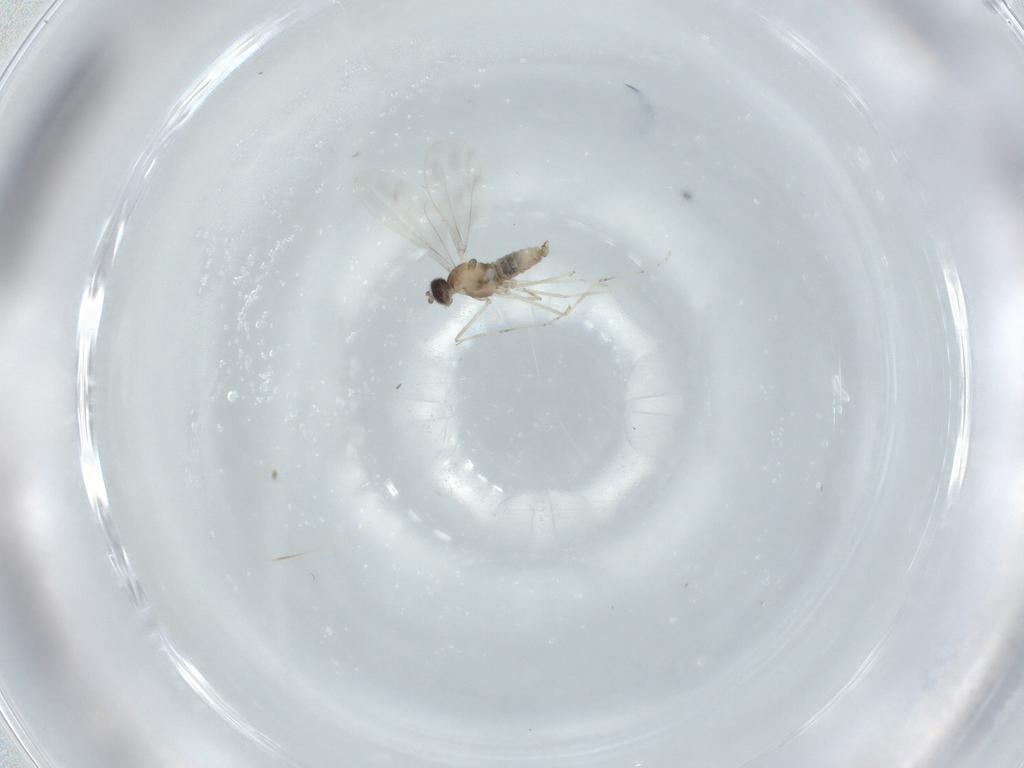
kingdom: Animalia
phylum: Arthropoda
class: Insecta
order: Diptera
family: Cecidomyiidae
